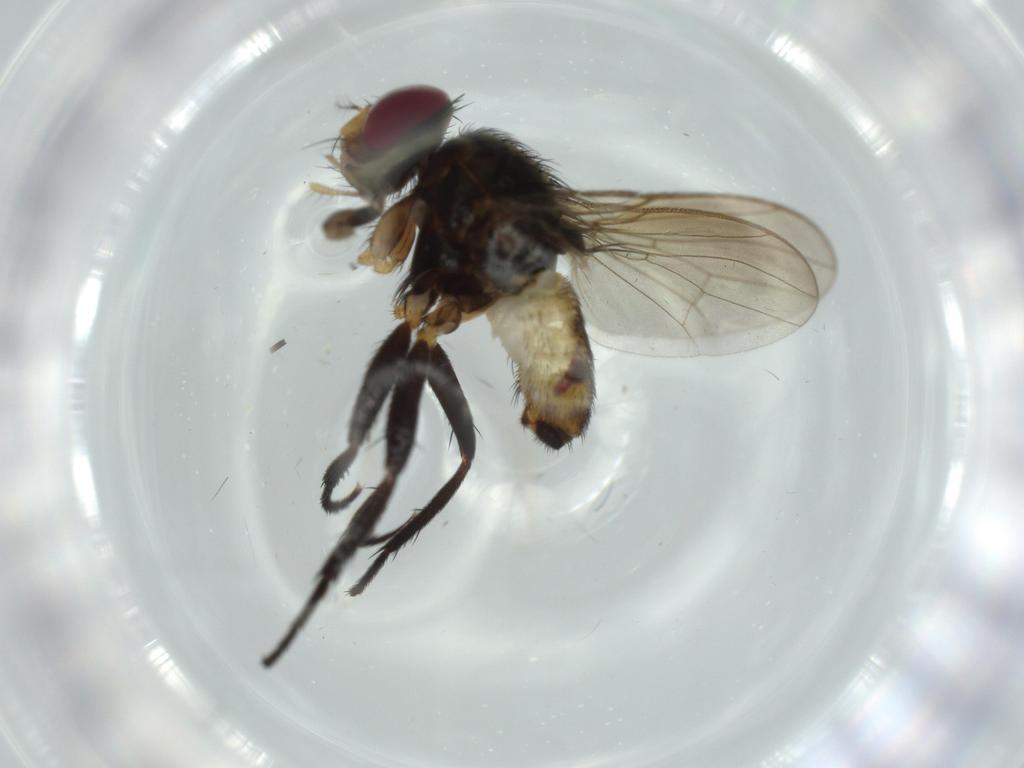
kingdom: Animalia
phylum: Arthropoda
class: Insecta
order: Diptera
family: Anthomyiidae
